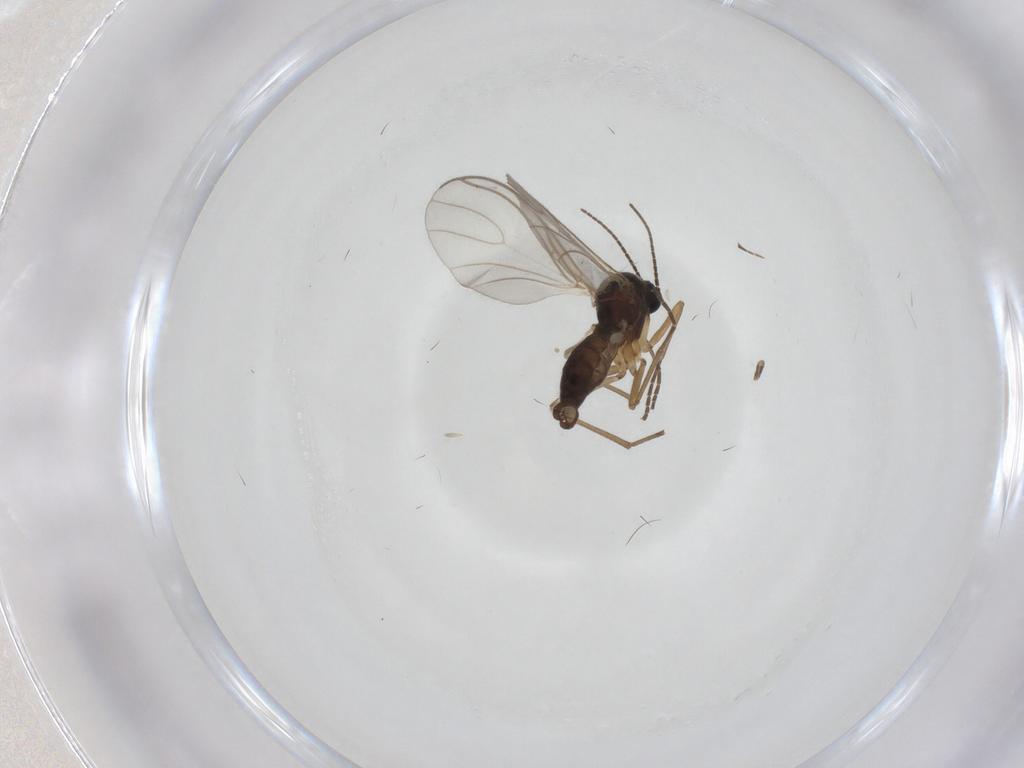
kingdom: Animalia
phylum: Arthropoda
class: Insecta
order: Diptera
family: Sciaridae
